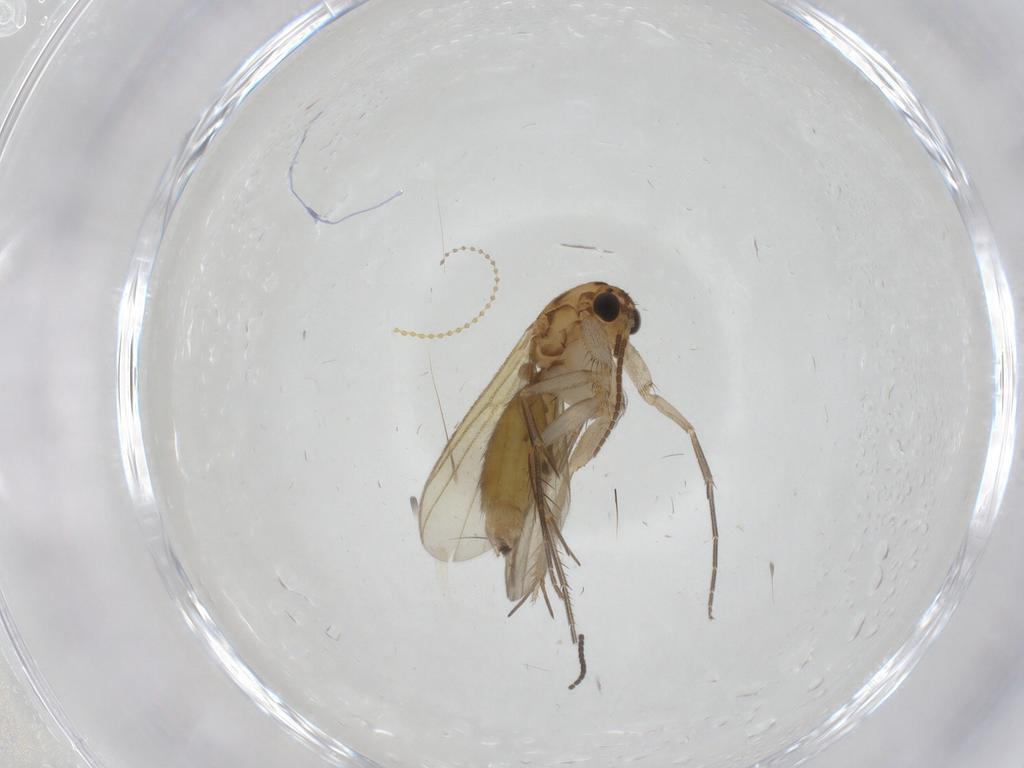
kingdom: Animalia
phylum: Arthropoda
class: Insecta
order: Diptera
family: Mycetophilidae
